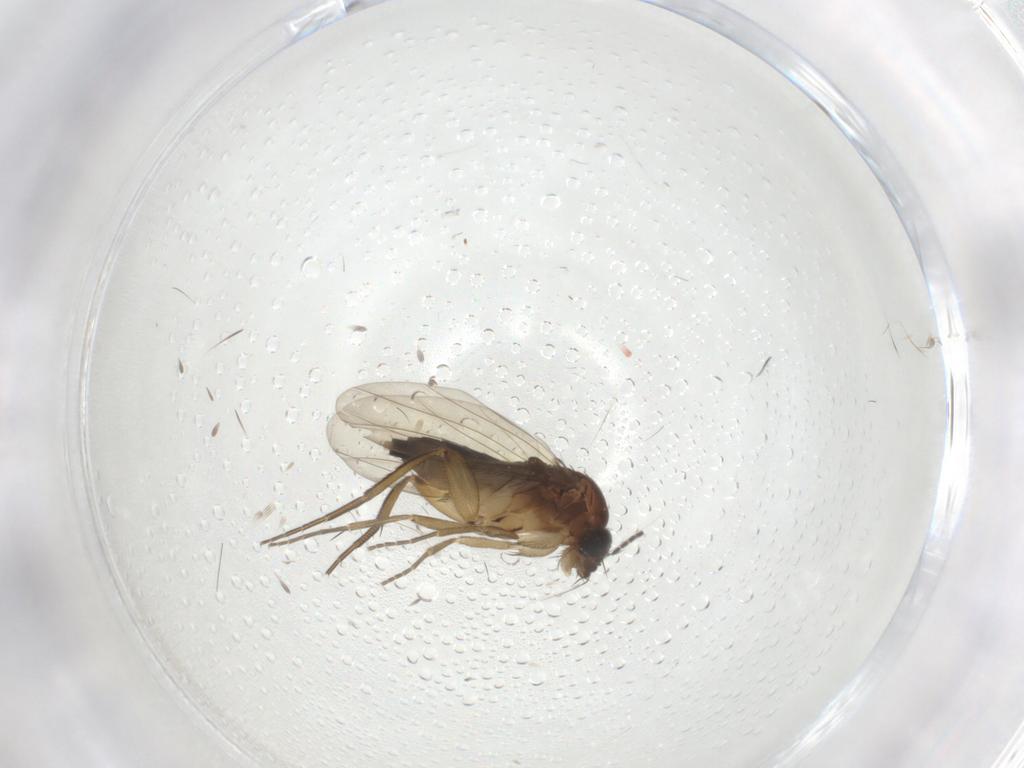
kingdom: Animalia
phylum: Arthropoda
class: Insecta
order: Diptera
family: Phoridae
